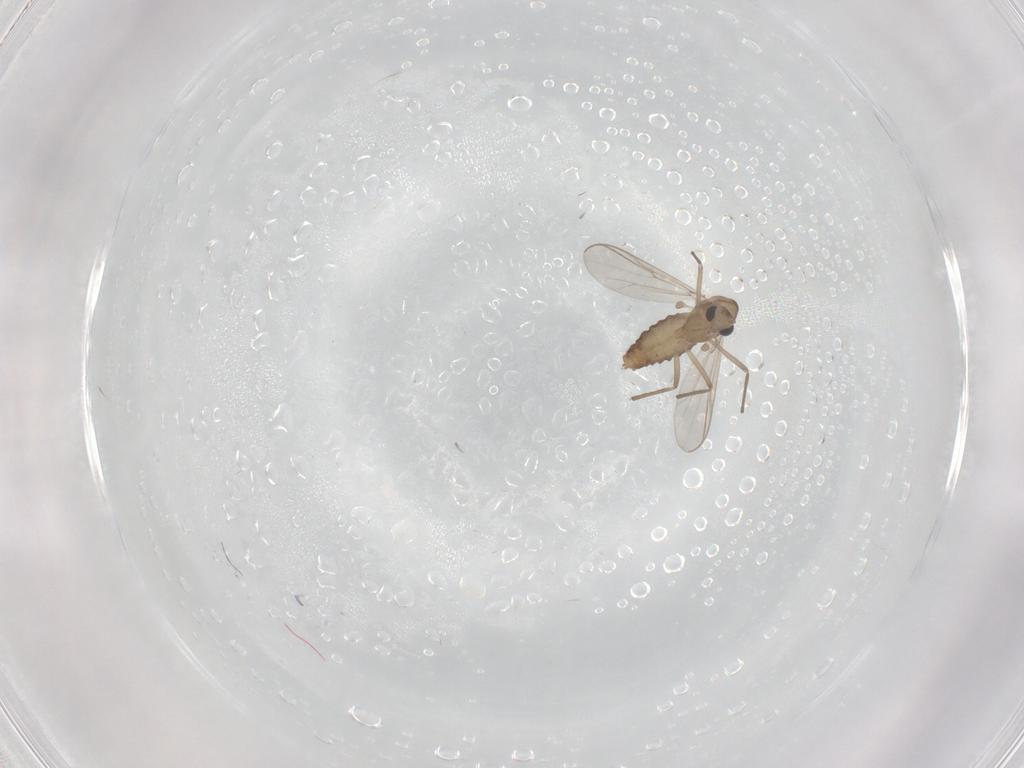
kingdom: Animalia
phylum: Arthropoda
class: Insecta
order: Diptera
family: Chironomidae
